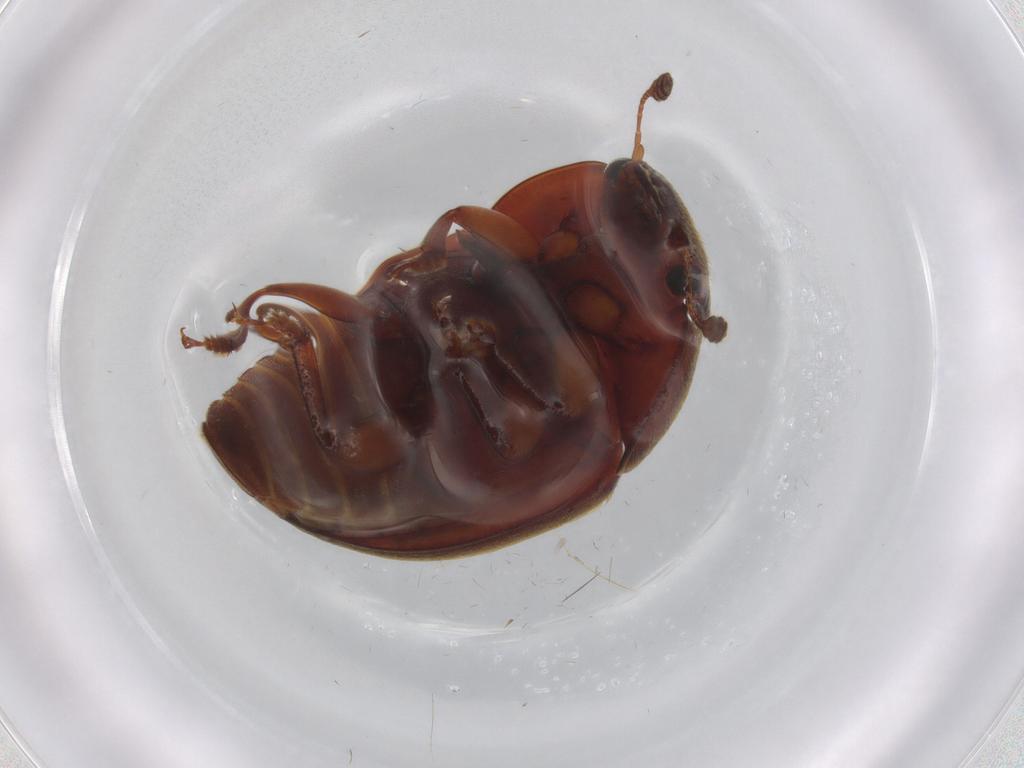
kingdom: Animalia
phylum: Arthropoda
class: Insecta
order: Coleoptera
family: Nitidulidae
